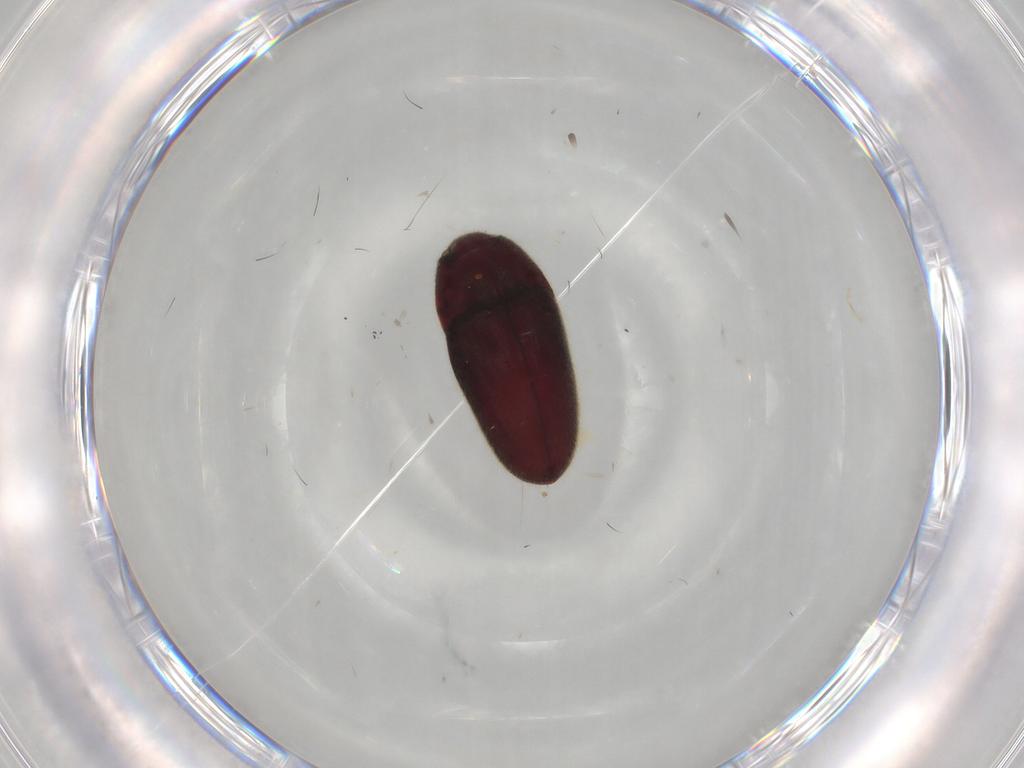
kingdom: Animalia
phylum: Arthropoda
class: Insecta
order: Coleoptera
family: Throscidae
